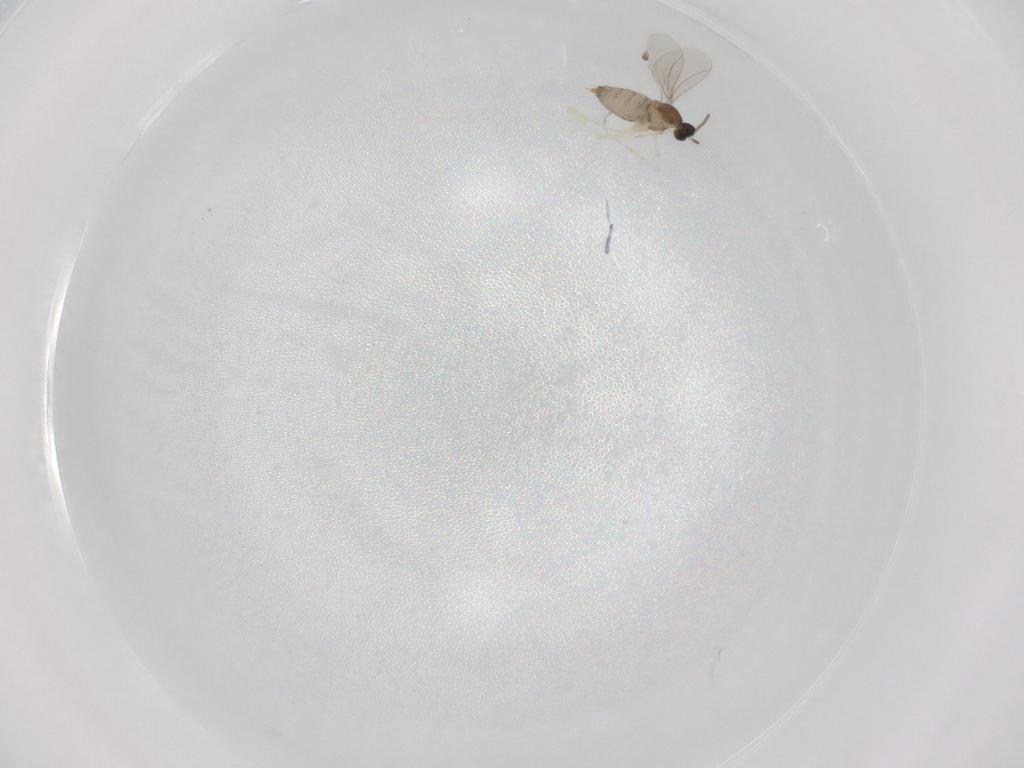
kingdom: Animalia
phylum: Arthropoda
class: Insecta
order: Diptera
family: Cecidomyiidae
